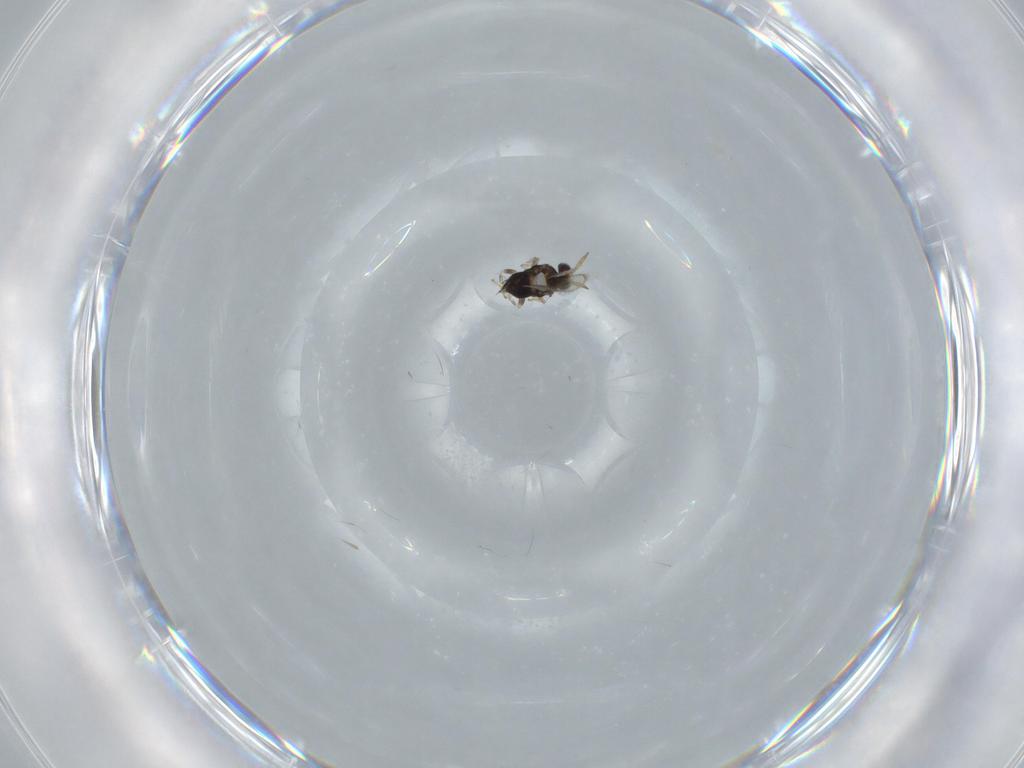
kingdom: Animalia
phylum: Arthropoda
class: Insecta
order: Hymenoptera
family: Aphelinidae
